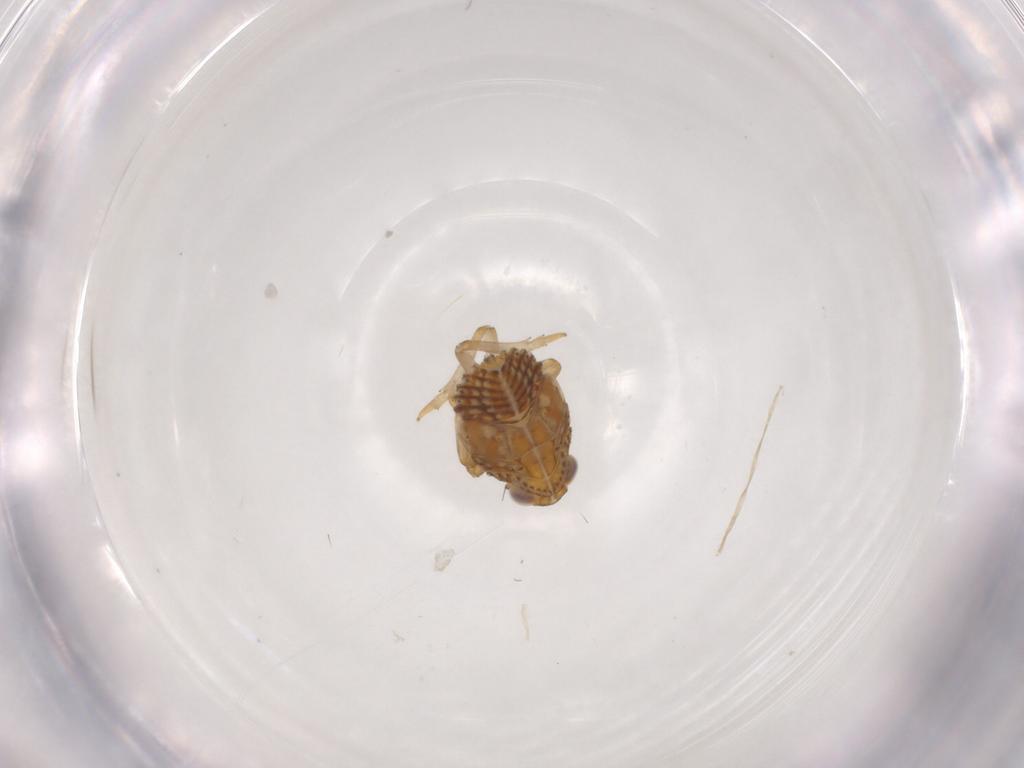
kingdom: Animalia
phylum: Arthropoda
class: Insecta
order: Hemiptera
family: Issidae
